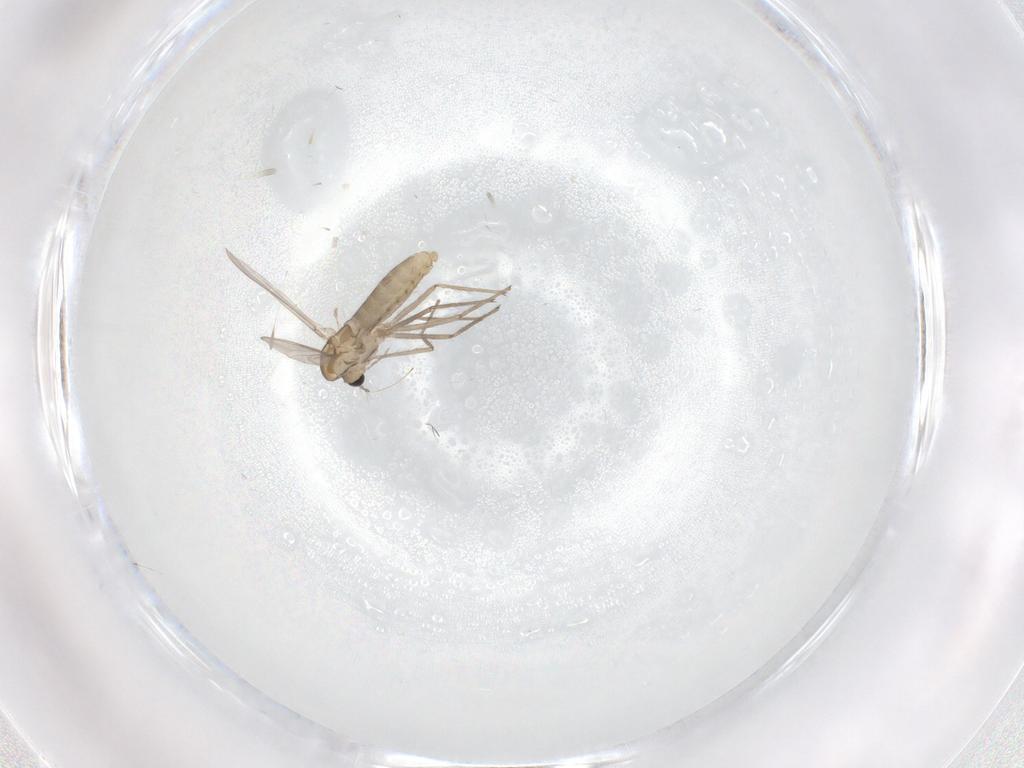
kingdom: Animalia
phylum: Arthropoda
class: Insecta
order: Diptera
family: Chironomidae
